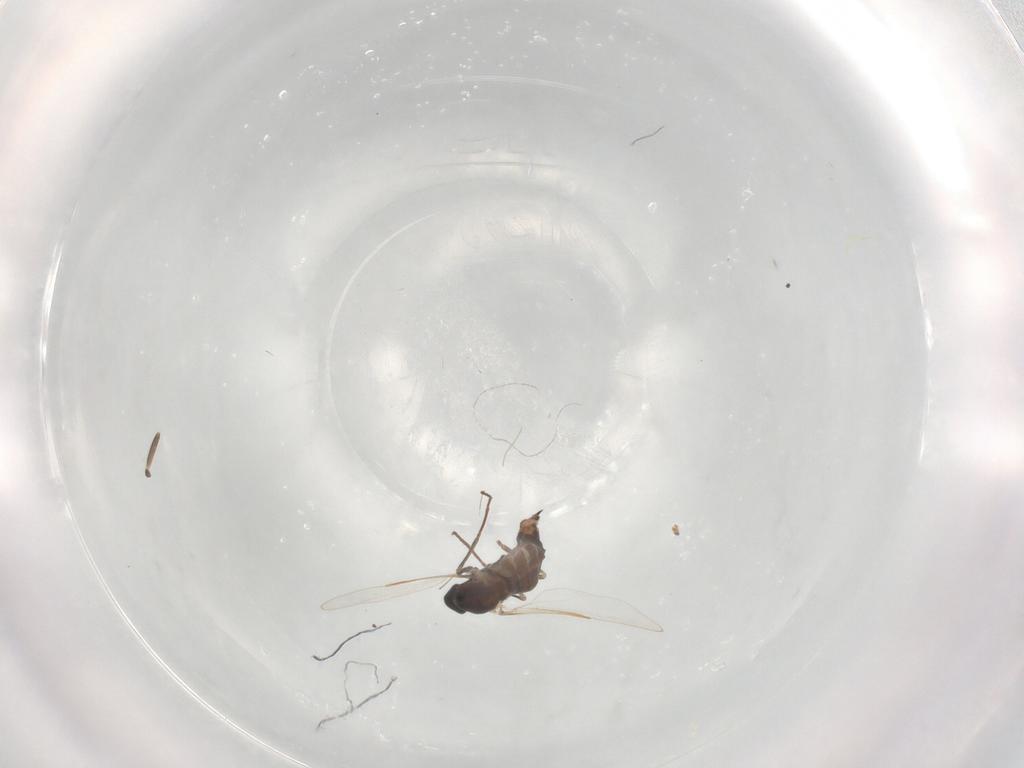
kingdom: Animalia
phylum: Arthropoda
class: Insecta
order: Diptera
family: Cecidomyiidae
